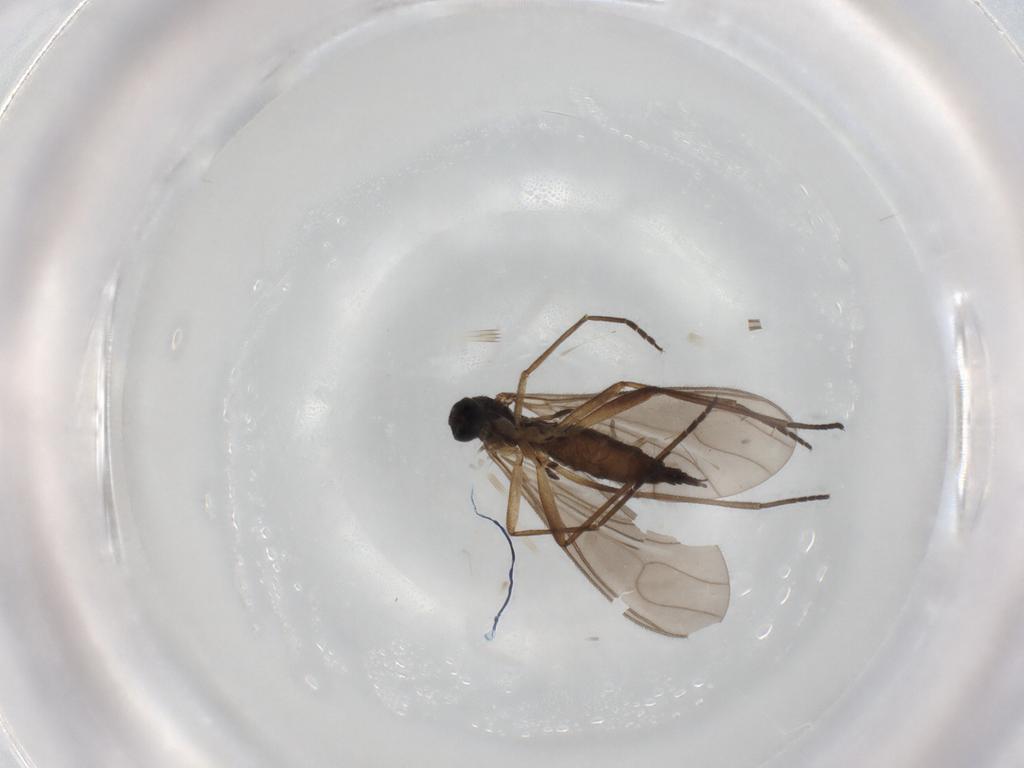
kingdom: Animalia
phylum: Arthropoda
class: Insecta
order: Diptera
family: Sciaridae
